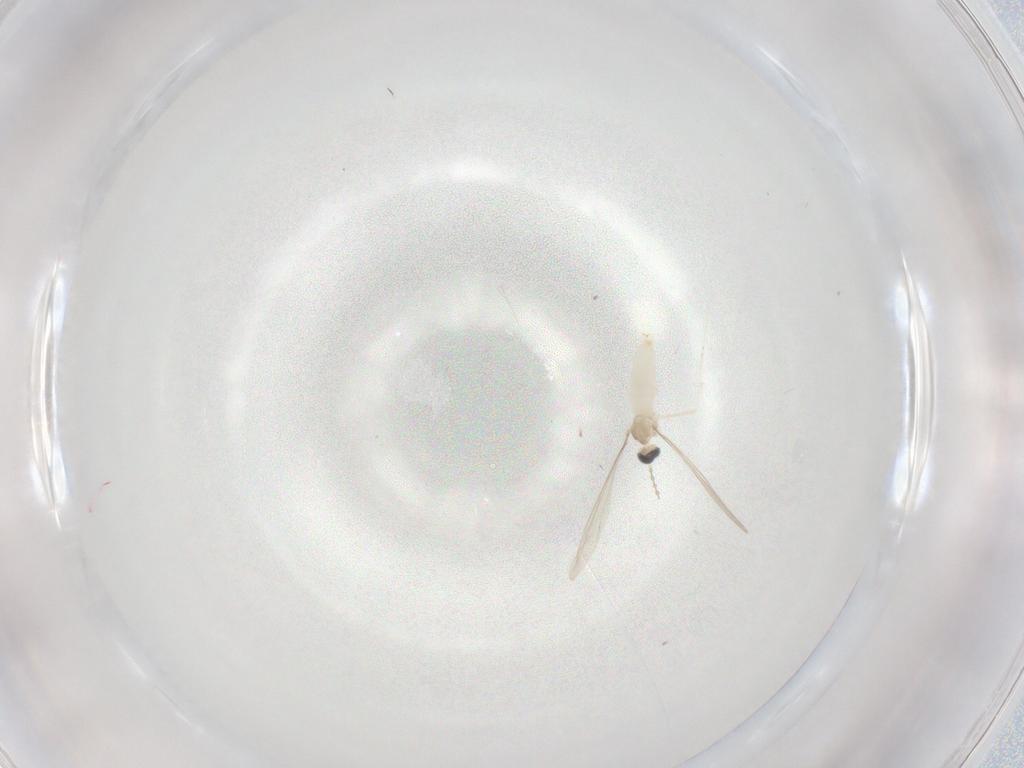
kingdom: Animalia
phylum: Arthropoda
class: Insecta
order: Diptera
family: Cecidomyiidae
